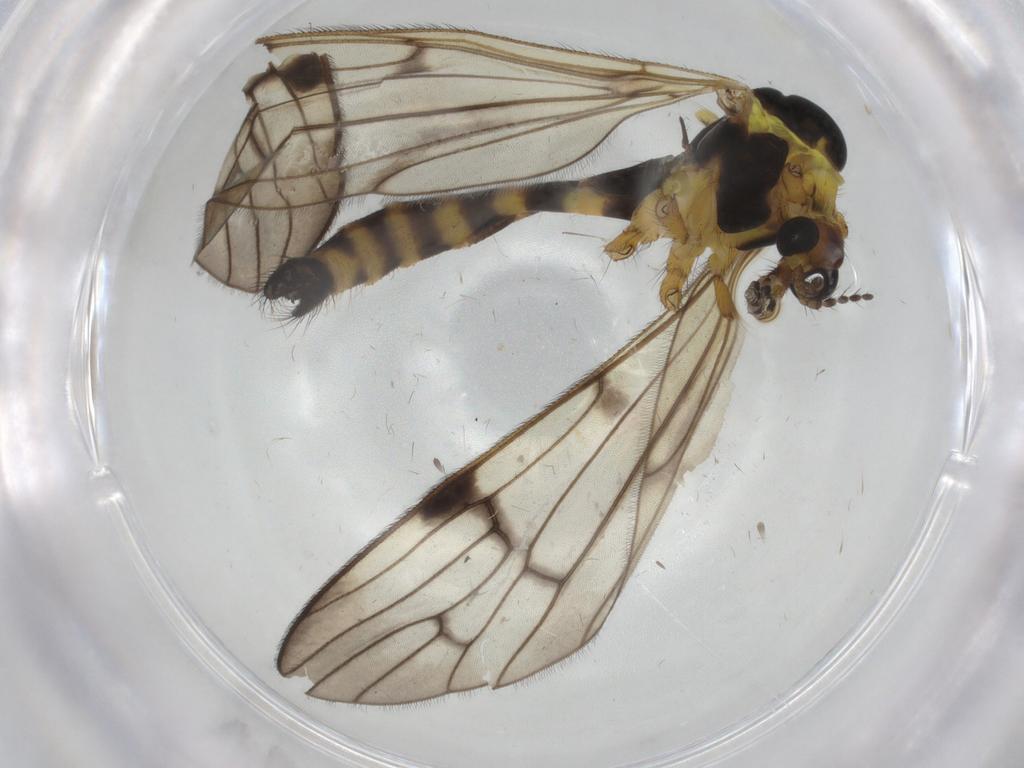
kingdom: Animalia
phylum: Arthropoda
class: Insecta
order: Diptera
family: Limoniidae
